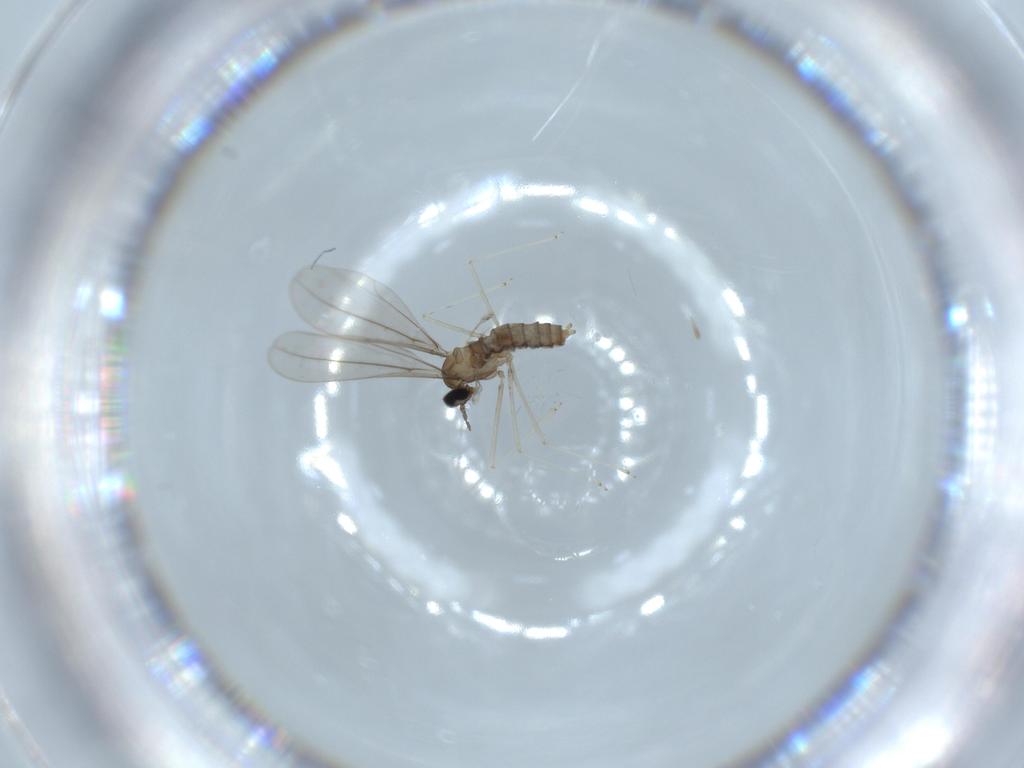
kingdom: Animalia
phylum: Arthropoda
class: Insecta
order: Diptera
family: Cecidomyiidae
